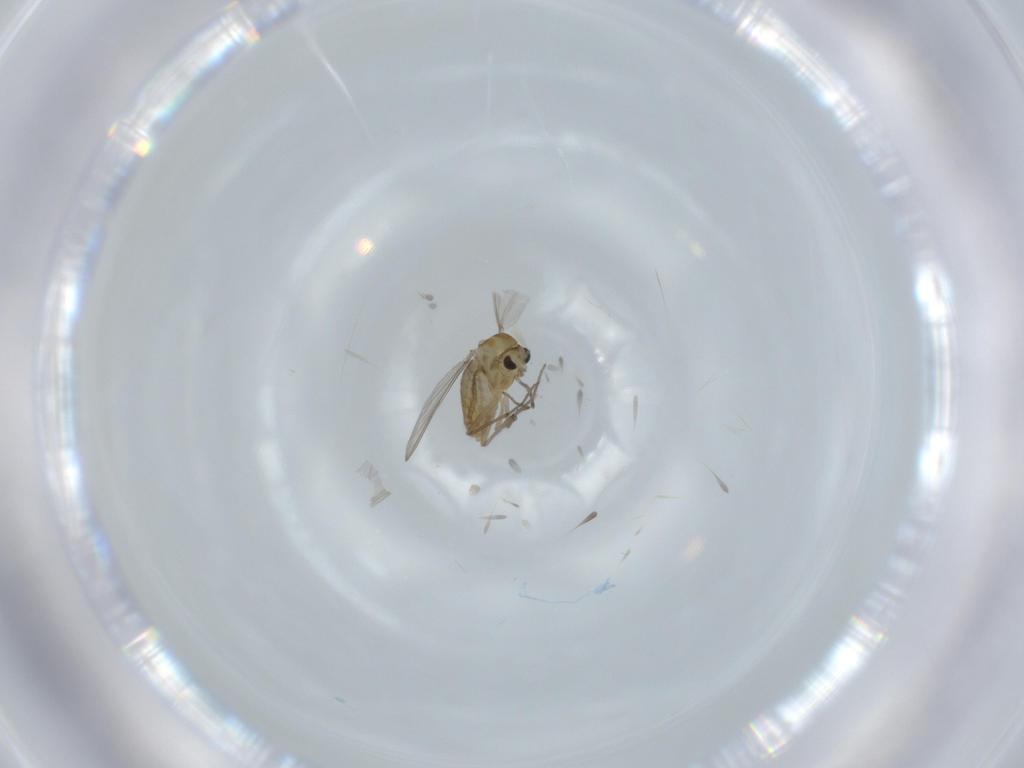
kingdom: Animalia
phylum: Arthropoda
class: Insecta
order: Diptera
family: Chironomidae
